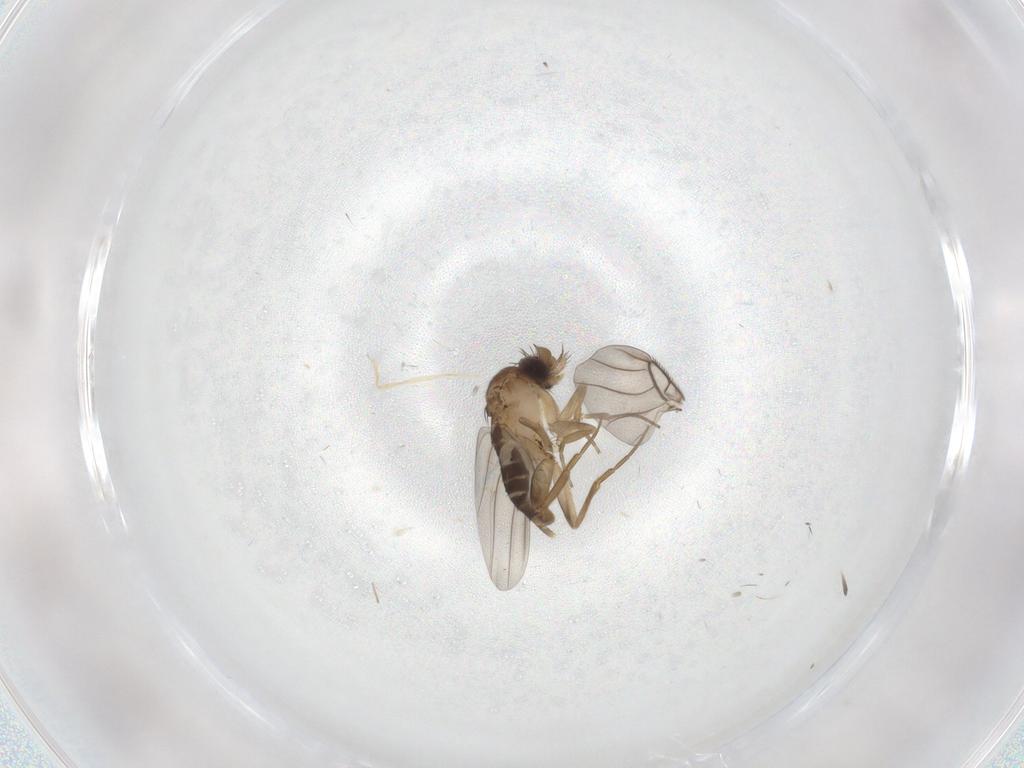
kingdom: Animalia
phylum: Arthropoda
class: Insecta
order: Diptera
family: Phoridae
